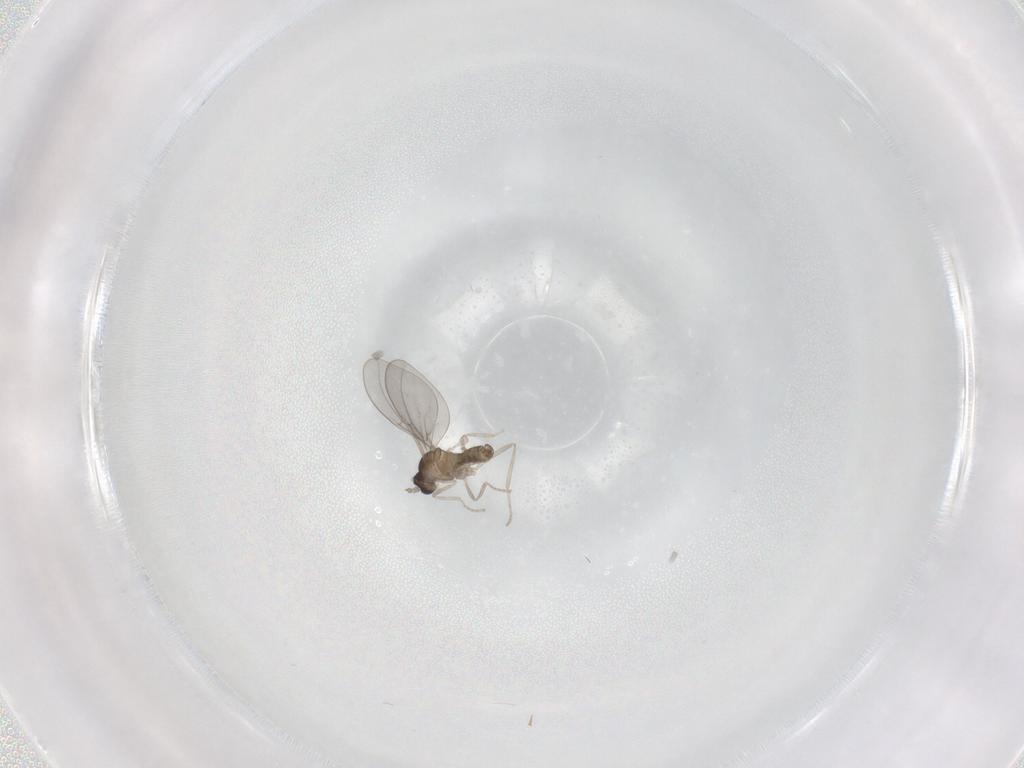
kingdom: Animalia
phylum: Arthropoda
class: Insecta
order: Diptera
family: Cecidomyiidae
